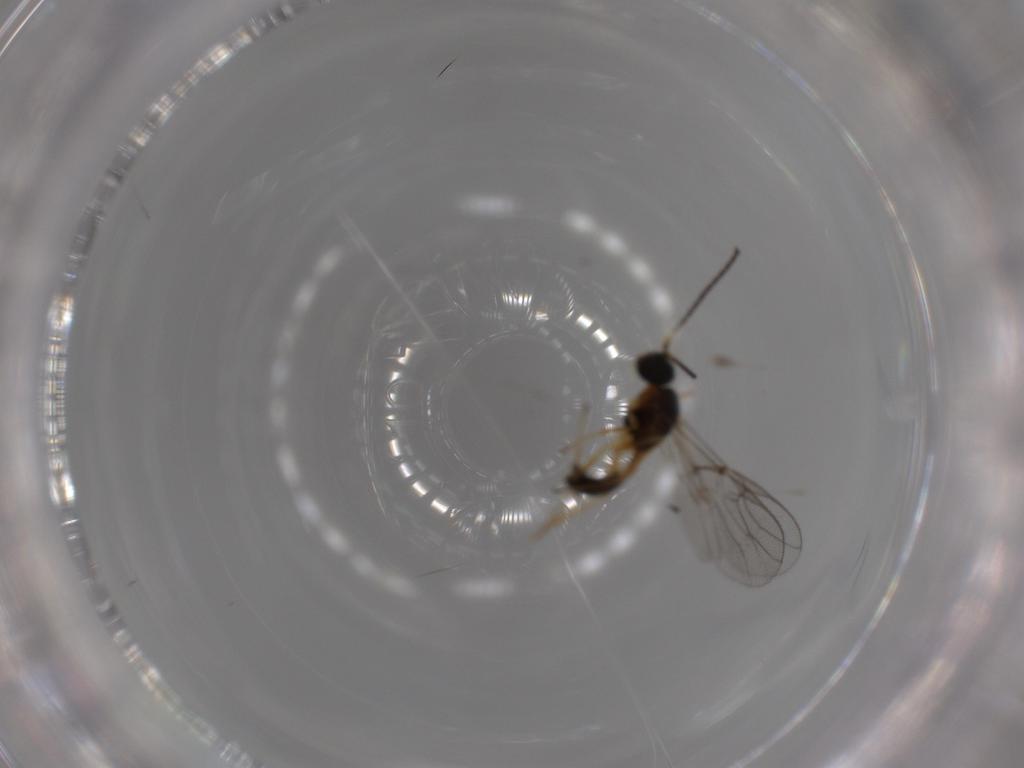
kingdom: Animalia
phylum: Arthropoda
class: Insecta
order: Hymenoptera
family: Braconidae
